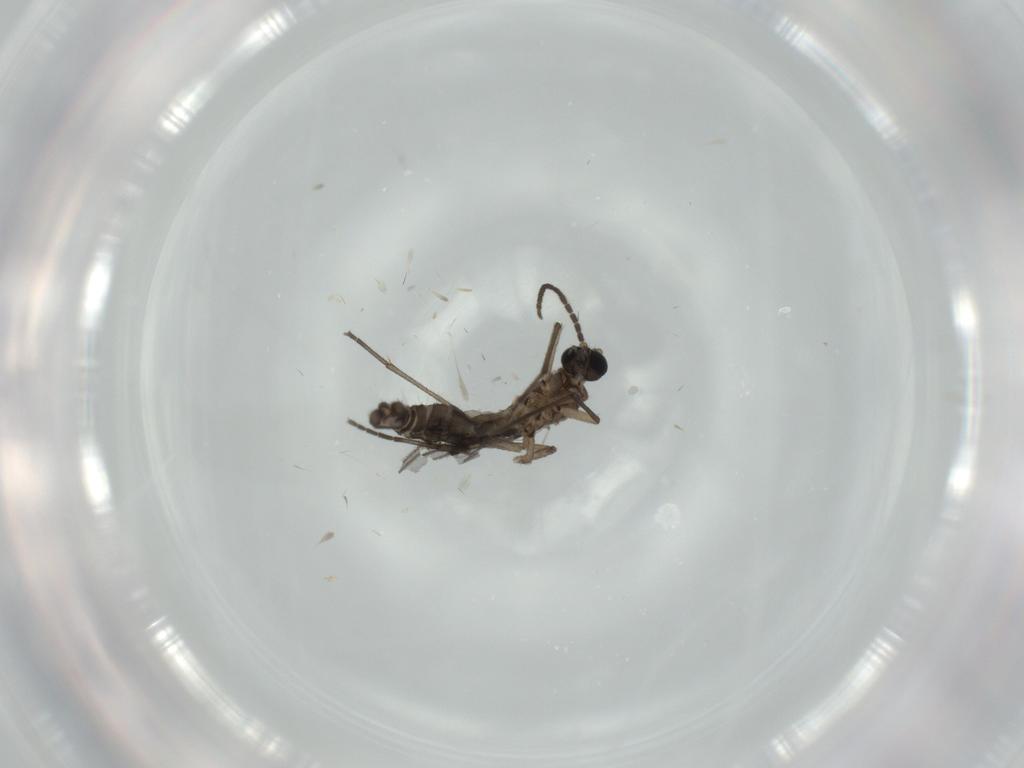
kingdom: Animalia
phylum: Arthropoda
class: Insecta
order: Diptera
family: Sciaridae
